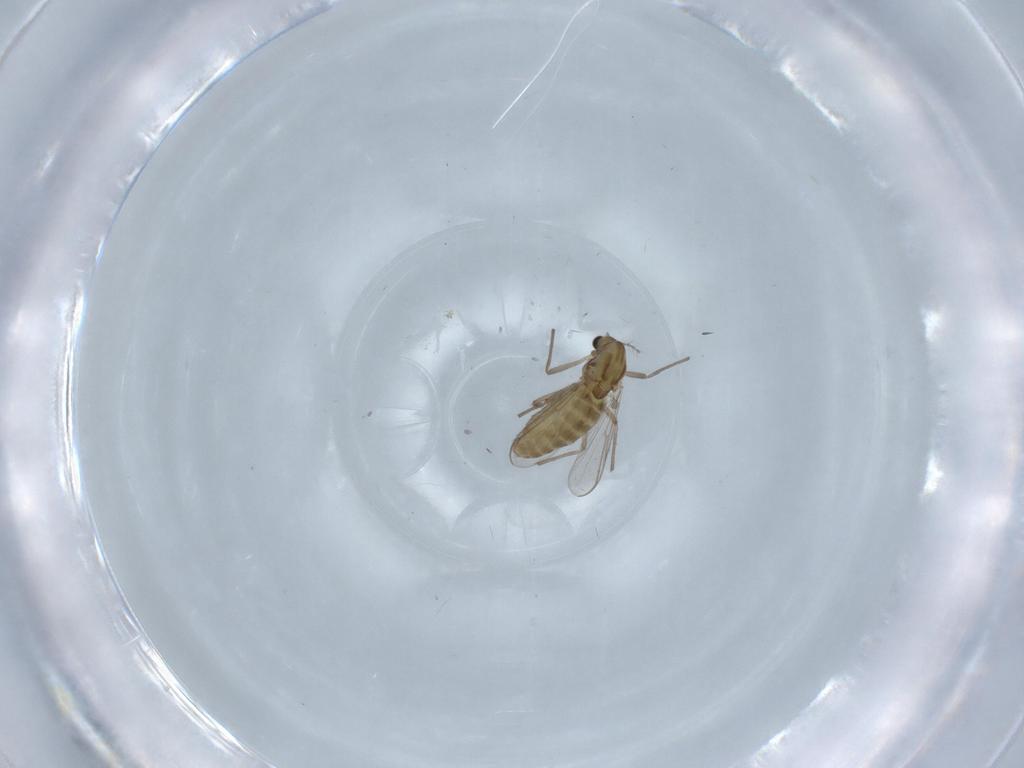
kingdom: Animalia
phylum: Arthropoda
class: Insecta
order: Diptera
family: Chironomidae
